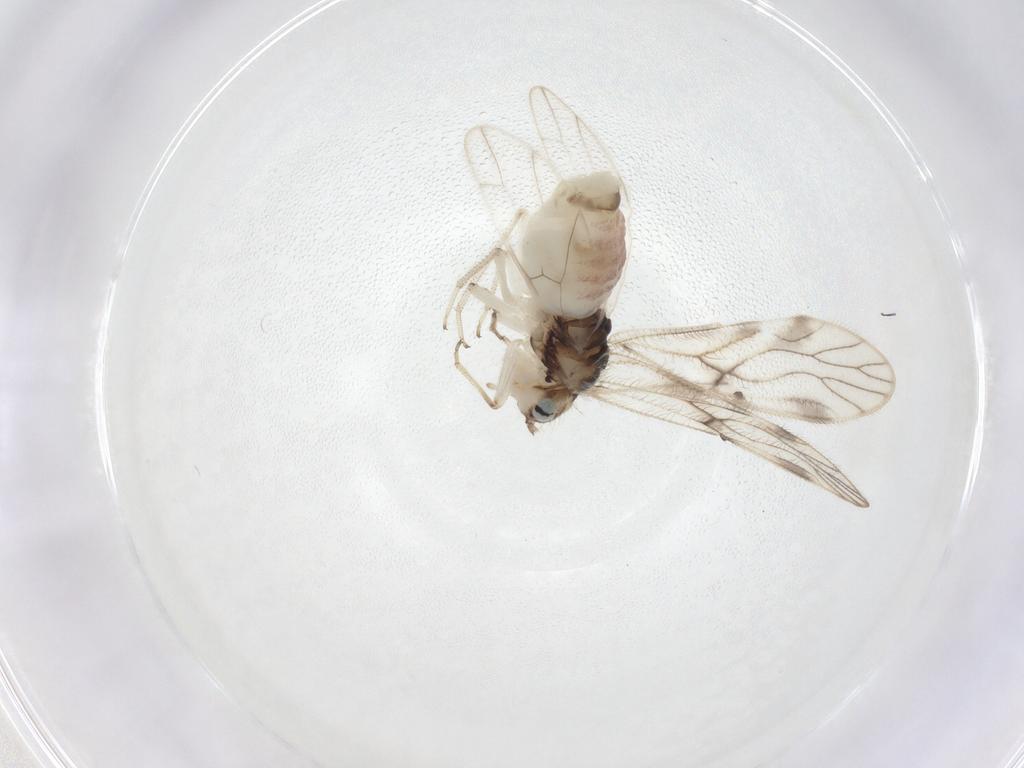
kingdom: Animalia
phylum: Arthropoda
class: Insecta
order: Psocodea
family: Caeciliusidae
